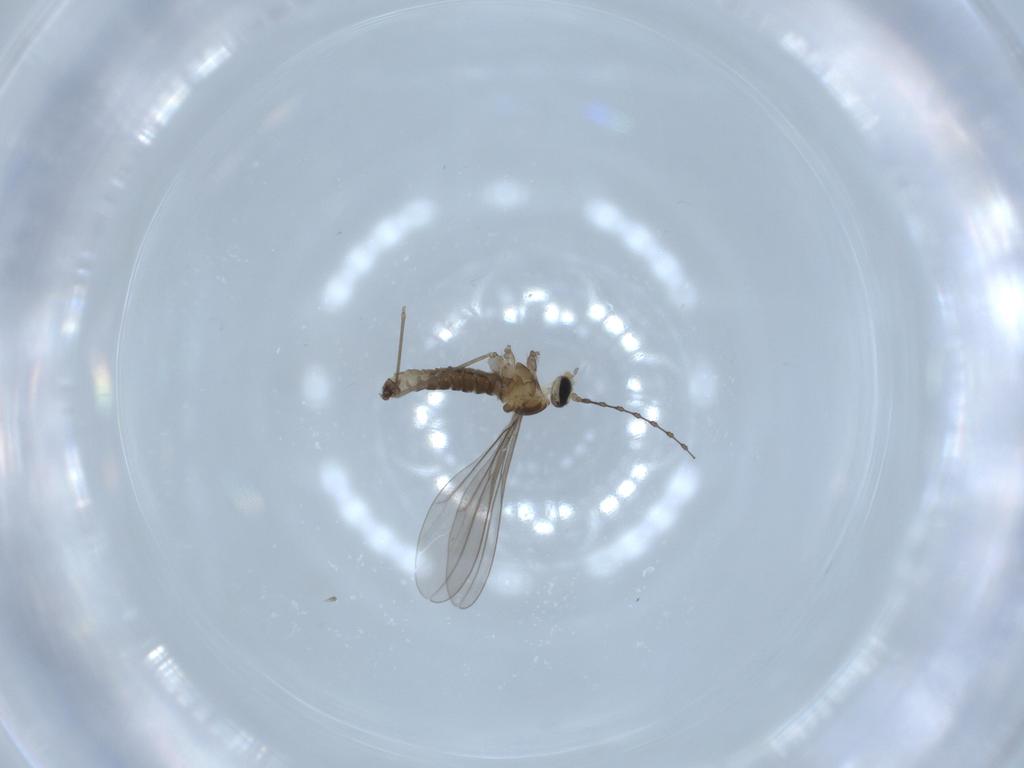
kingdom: Animalia
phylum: Arthropoda
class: Insecta
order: Diptera
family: Cecidomyiidae
